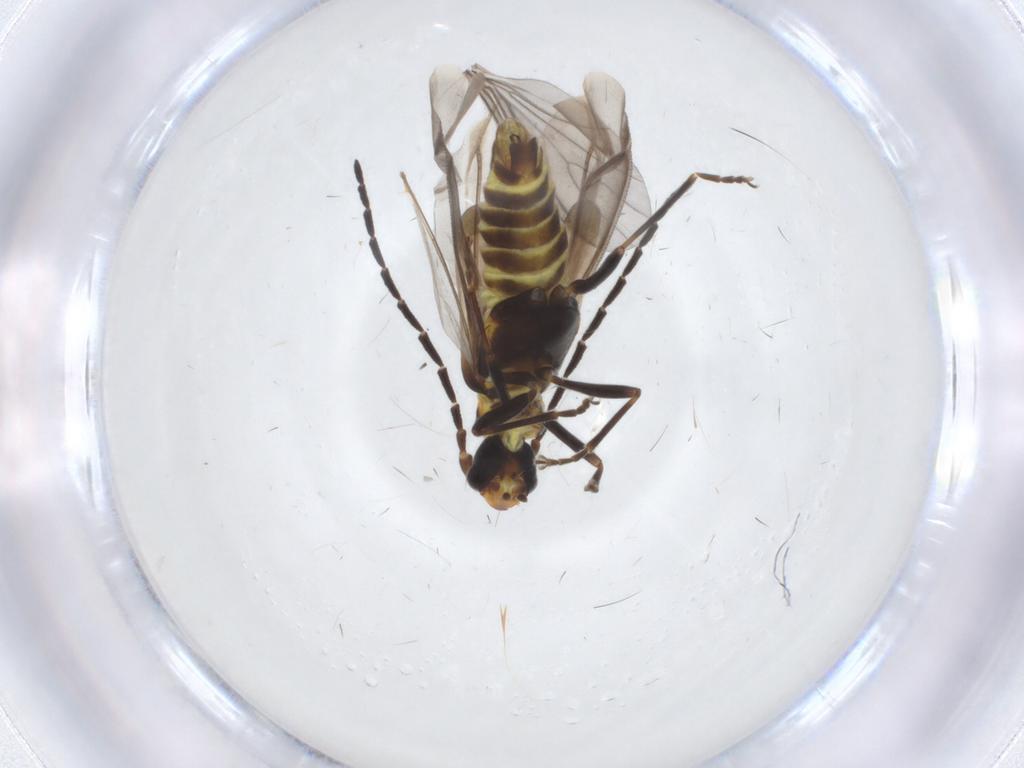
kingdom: Animalia
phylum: Arthropoda
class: Insecta
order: Coleoptera
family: Cantharidae
